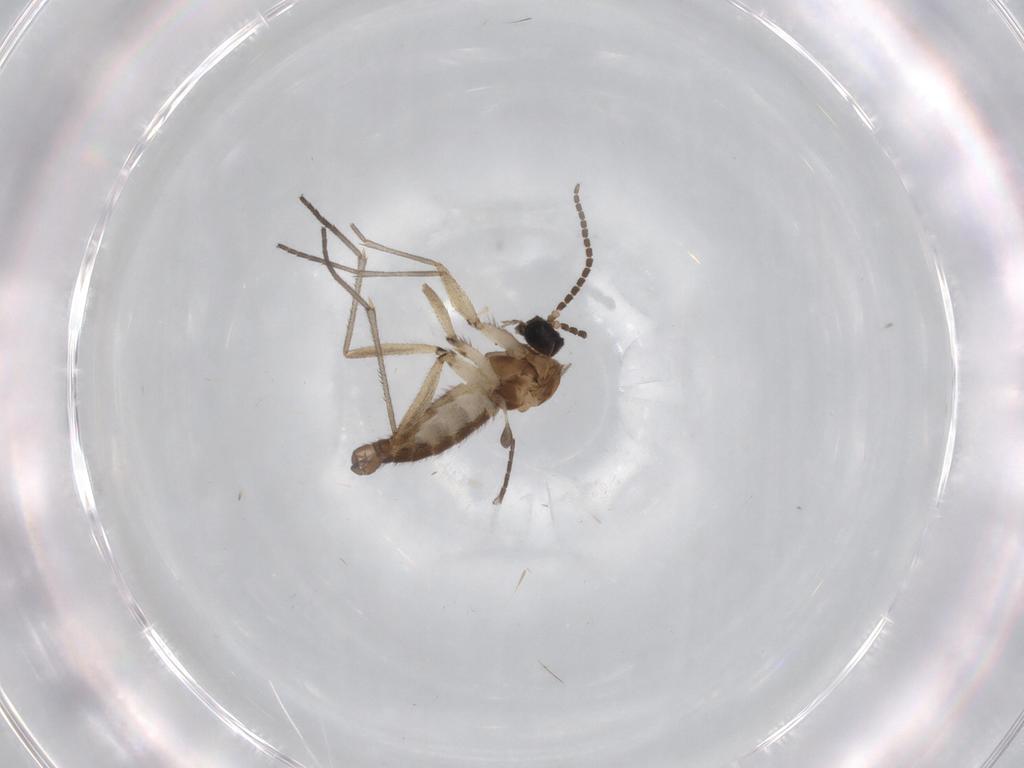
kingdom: Animalia
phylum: Arthropoda
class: Insecta
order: Diptera
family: Sciaridae
